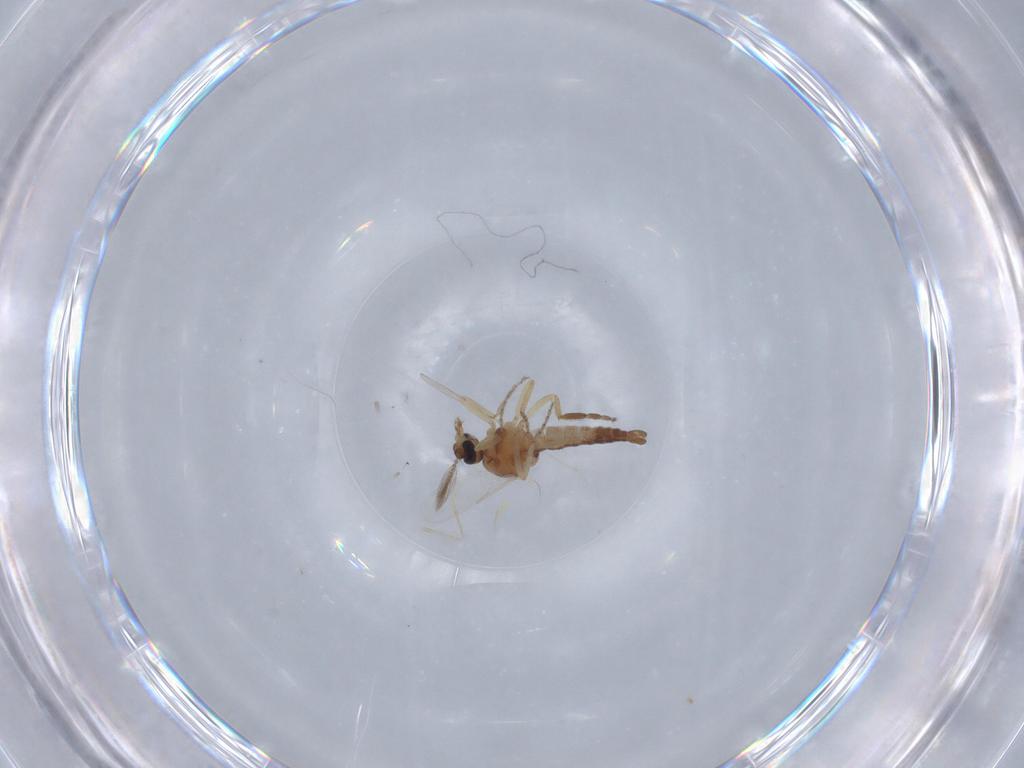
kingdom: Animalia
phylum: Arthropoda
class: Insecta
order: Diptera
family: Ceratopogonidae
